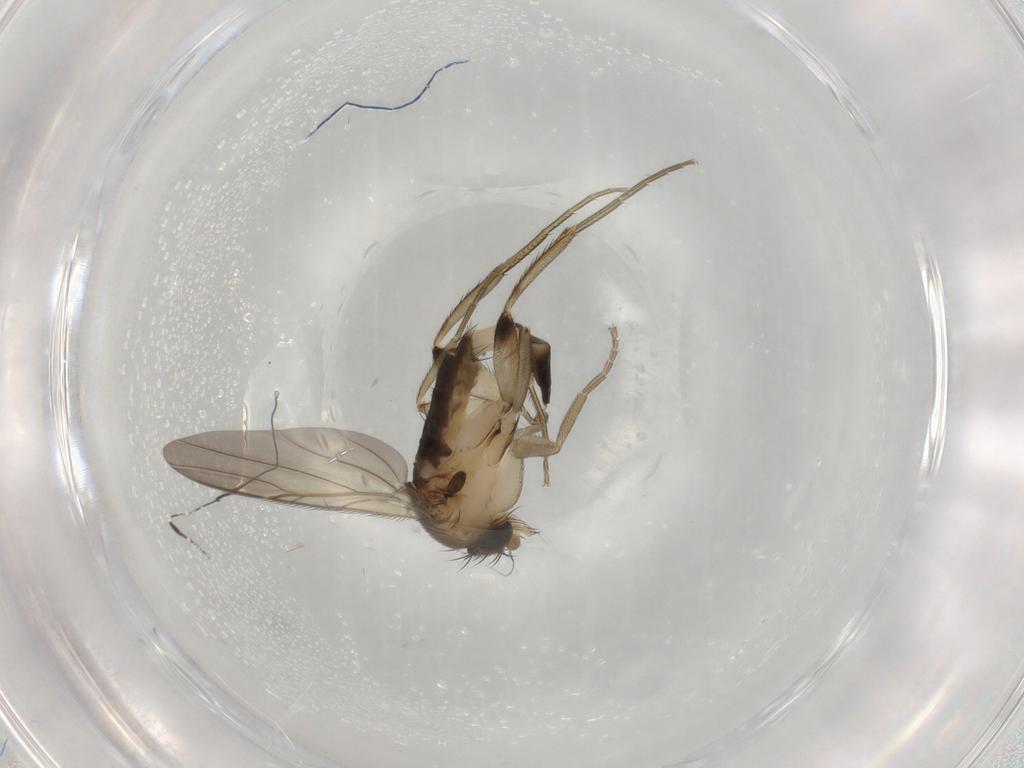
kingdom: Animalia
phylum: Arthropoda
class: Insecta
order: Diptera
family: Phoridae
